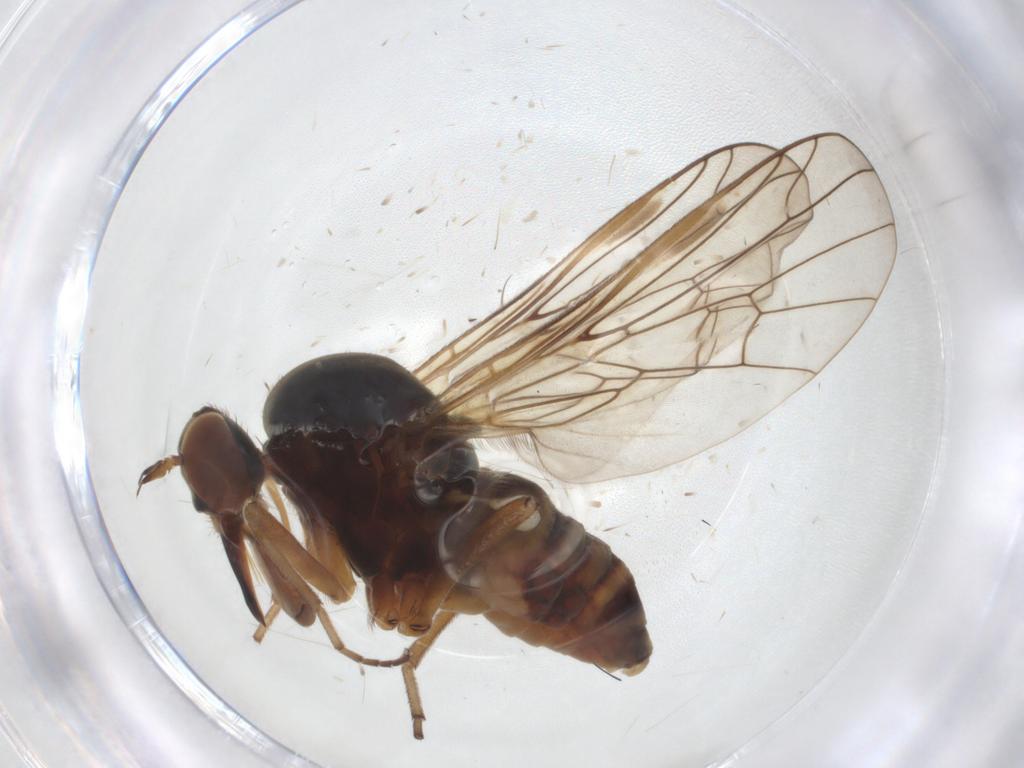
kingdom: Animalia
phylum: Arthropoda
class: Insecta
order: Diptera
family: Empididae
